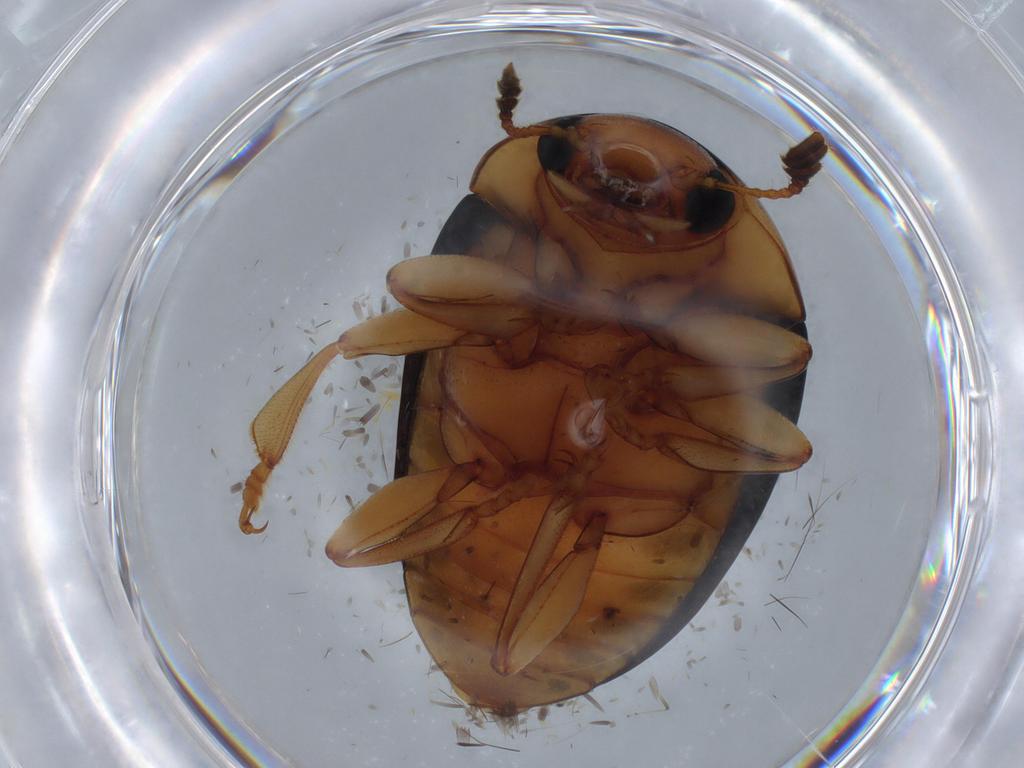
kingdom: Animalia
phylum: Arthropoda
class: Insecta
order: Coleoptera
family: Erotylidae
